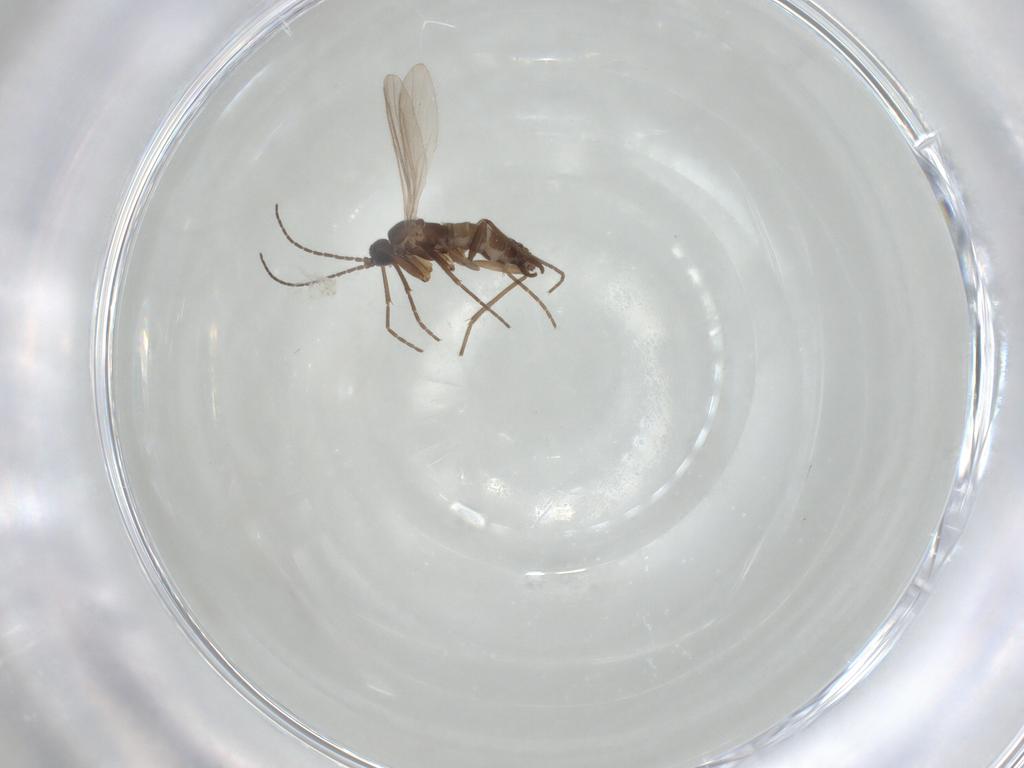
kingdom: Animalia
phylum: Arthropoda
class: Insecta
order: Diptera
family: Sciaridae
